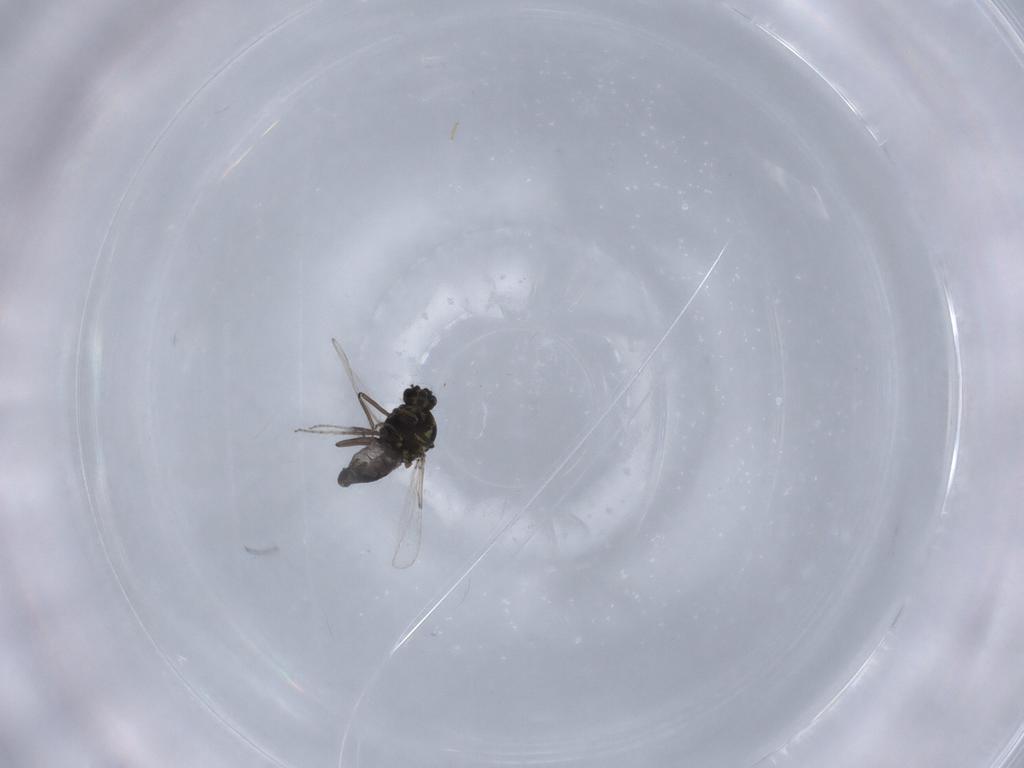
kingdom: Animalia
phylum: Arthropoda
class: Insecta
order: Diptera
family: Ceratopogonidae
